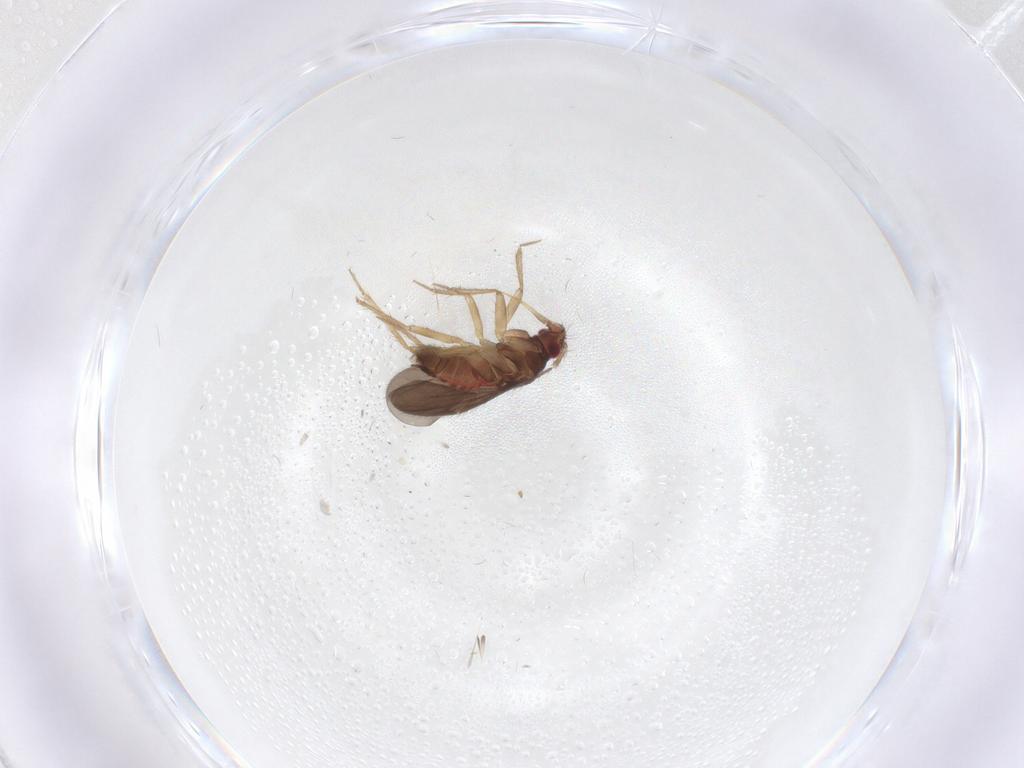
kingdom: Animalia
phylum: Arthropoda
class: Insecta
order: Hemiptera
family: Ceratocombidae
